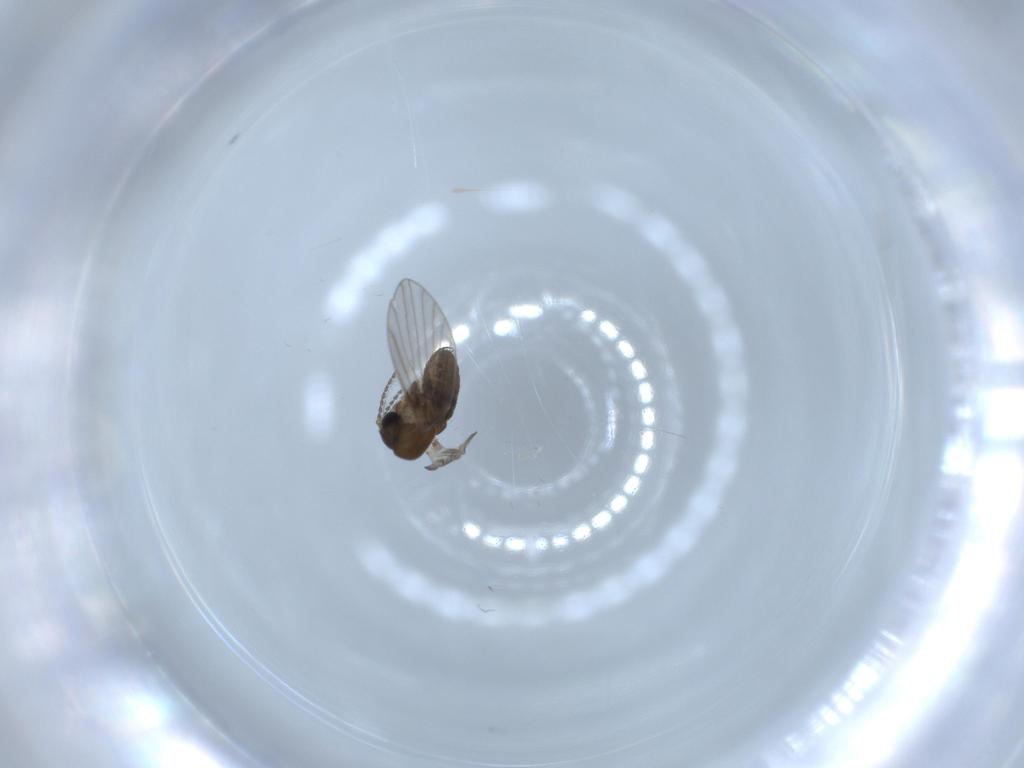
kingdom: Animalia
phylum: Arthropoda
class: Insecta
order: Diptera
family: Psychodidae
